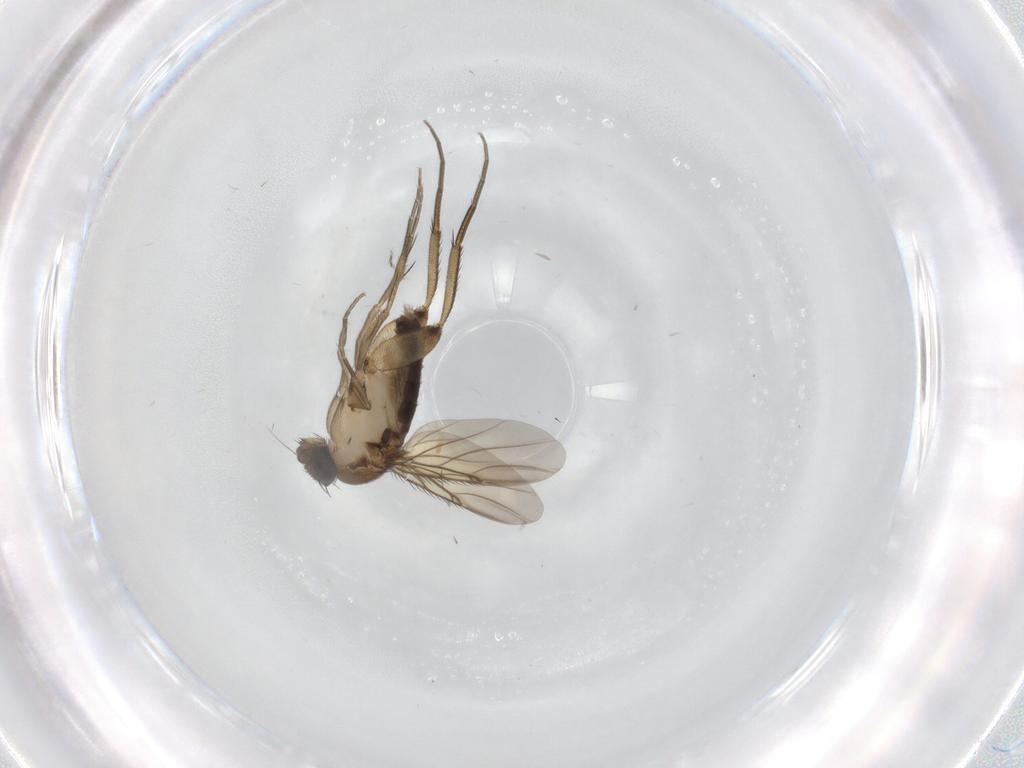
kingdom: Animalia
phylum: Arthropoda
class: Insecta
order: Diptera
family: Phoridae
